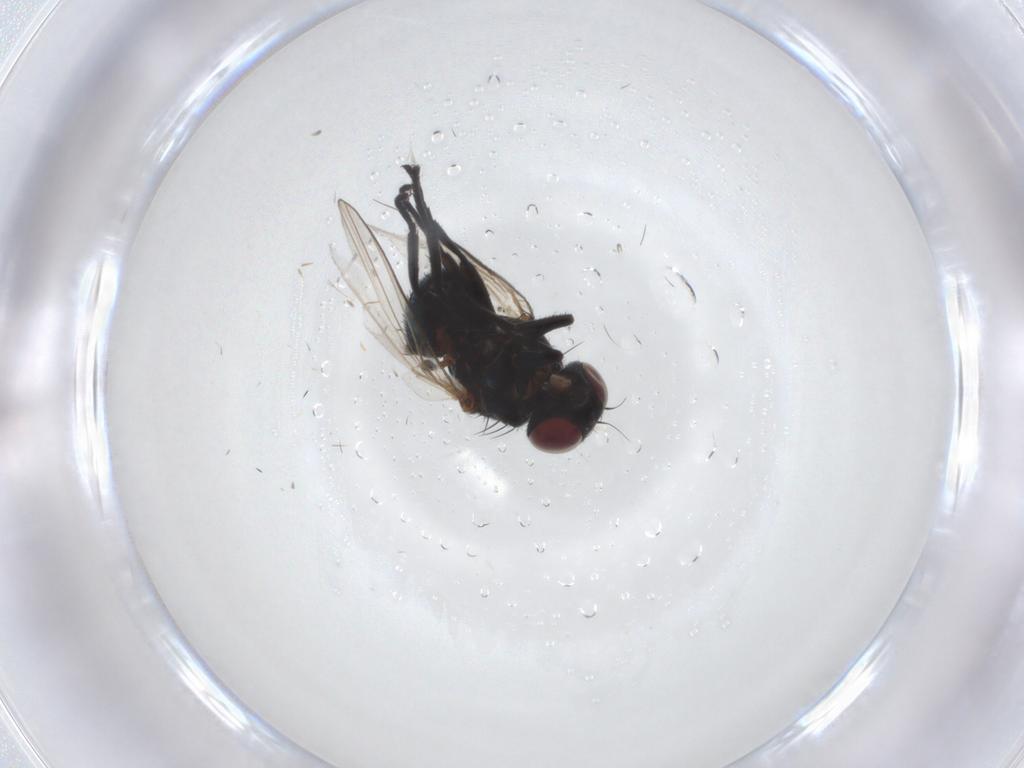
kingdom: Animalia
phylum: Arthropoda
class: Insecta
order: Diptera
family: Agromyzidae
